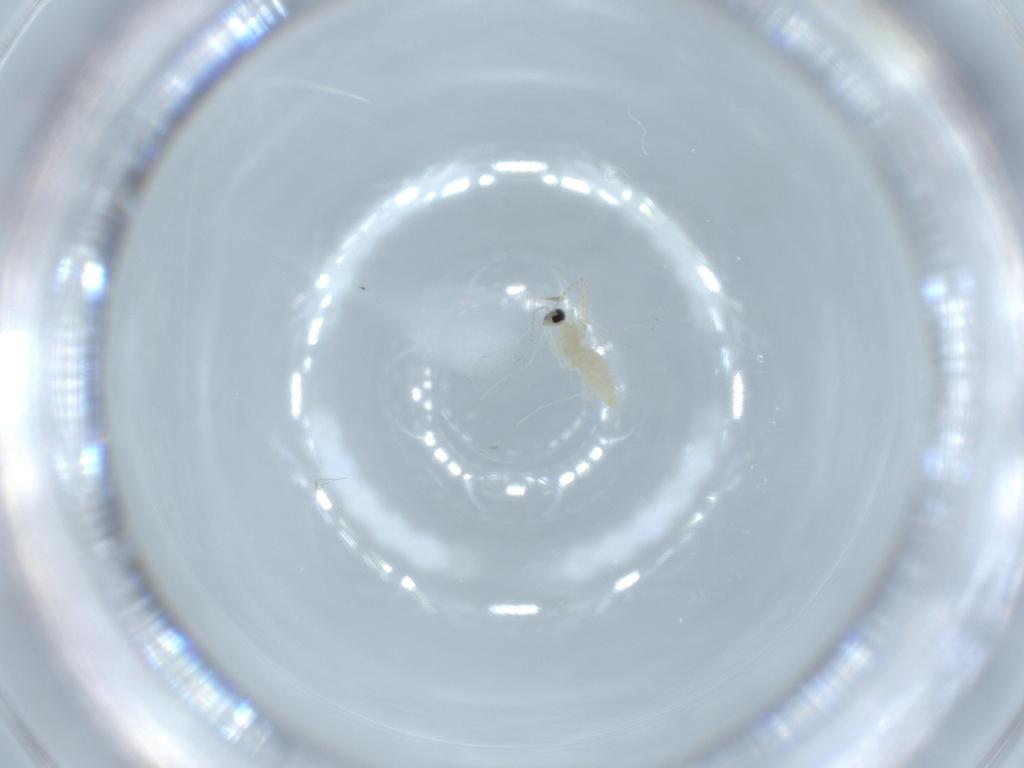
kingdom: Animalia
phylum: Arthropoda
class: Insecta
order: Diptera
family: Cecidomyiidae
